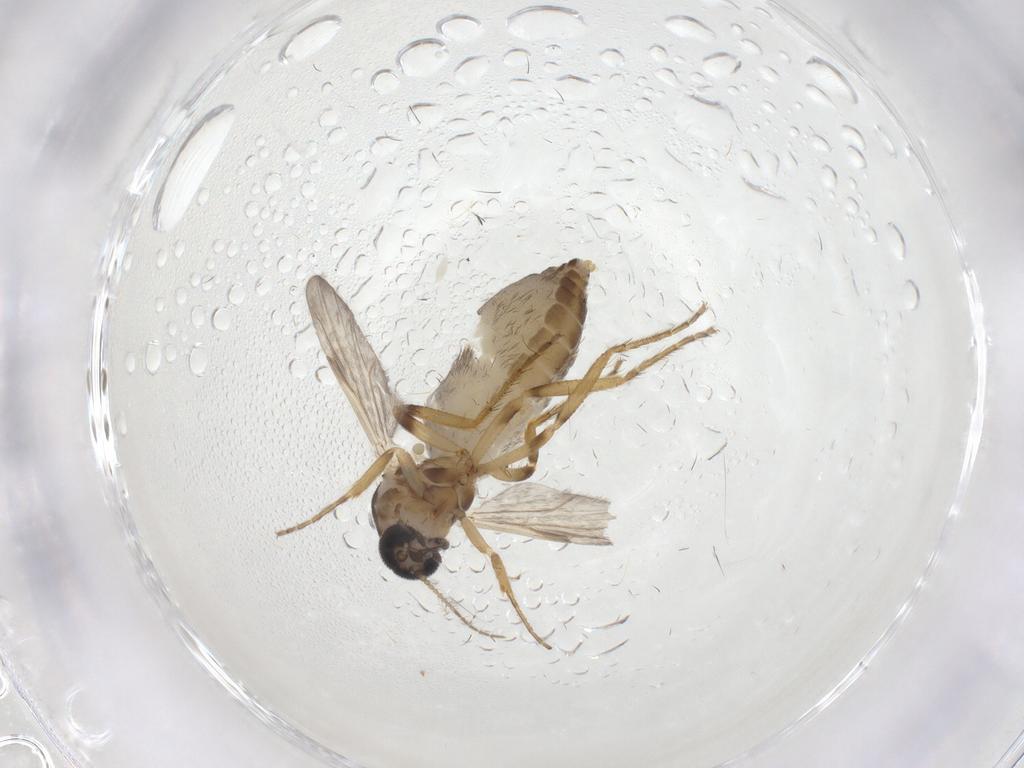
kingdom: Animalia
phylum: Arthropoda
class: Insecta
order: Diptera
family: Ceratopogonidae
